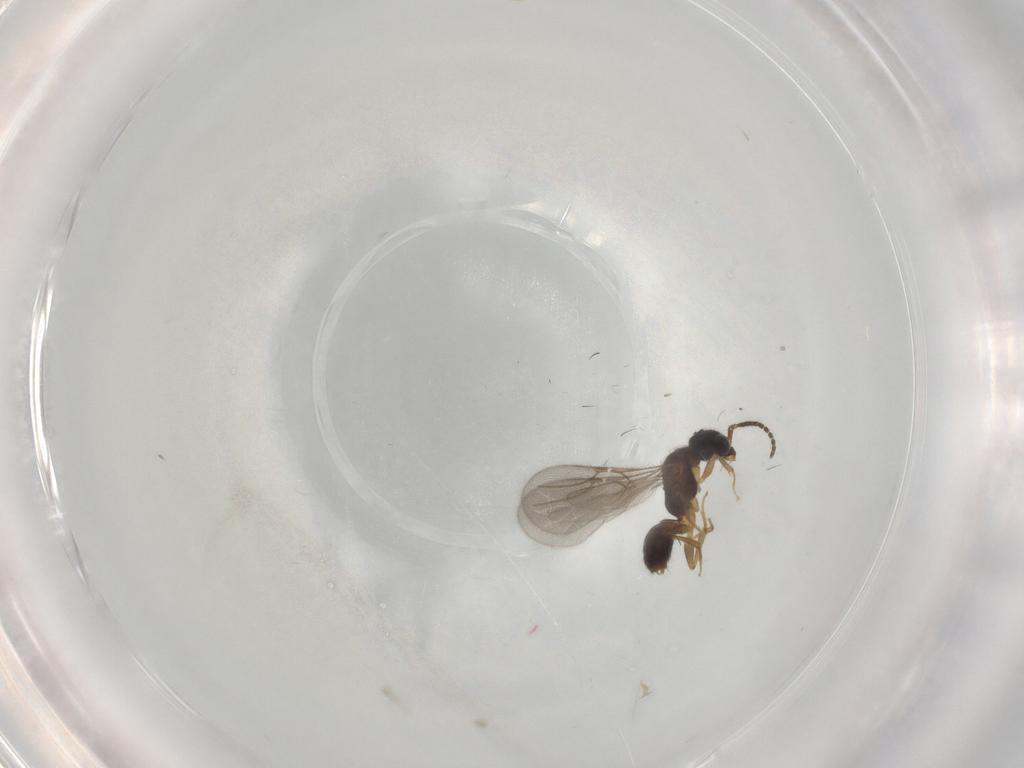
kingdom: Animalia
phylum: Arthropoda
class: Insecta
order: Hymenoptera
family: Bethylidae
